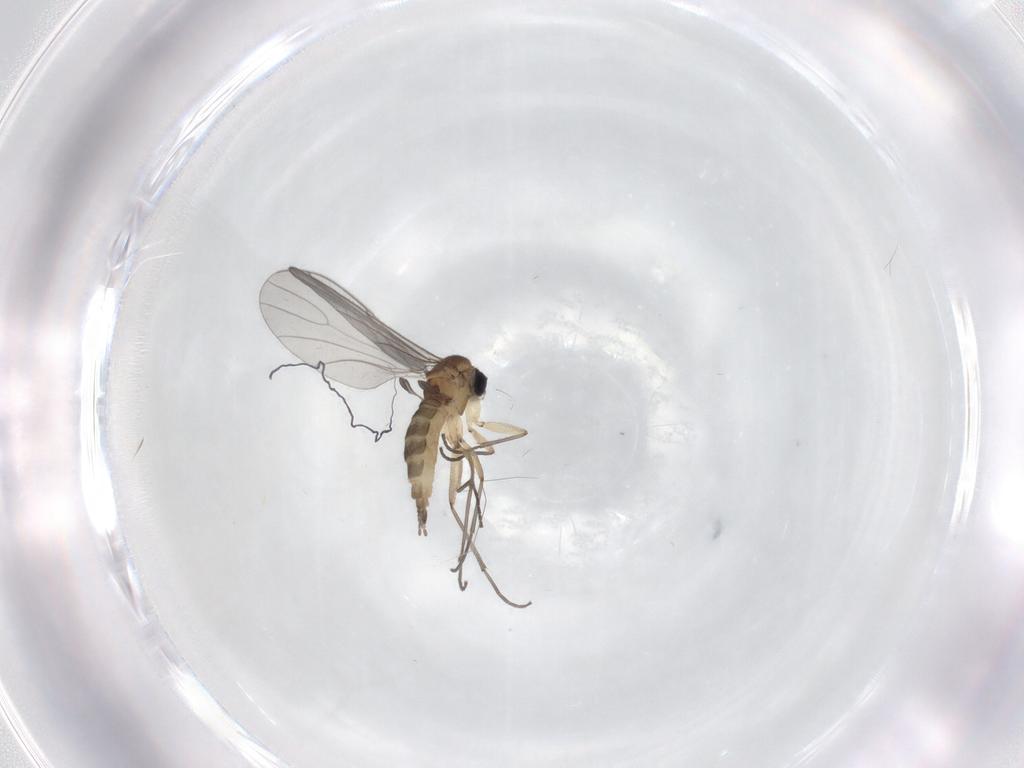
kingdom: Animalia
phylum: Arthropoda
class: Insecta
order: Diptera
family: Sciaridae
